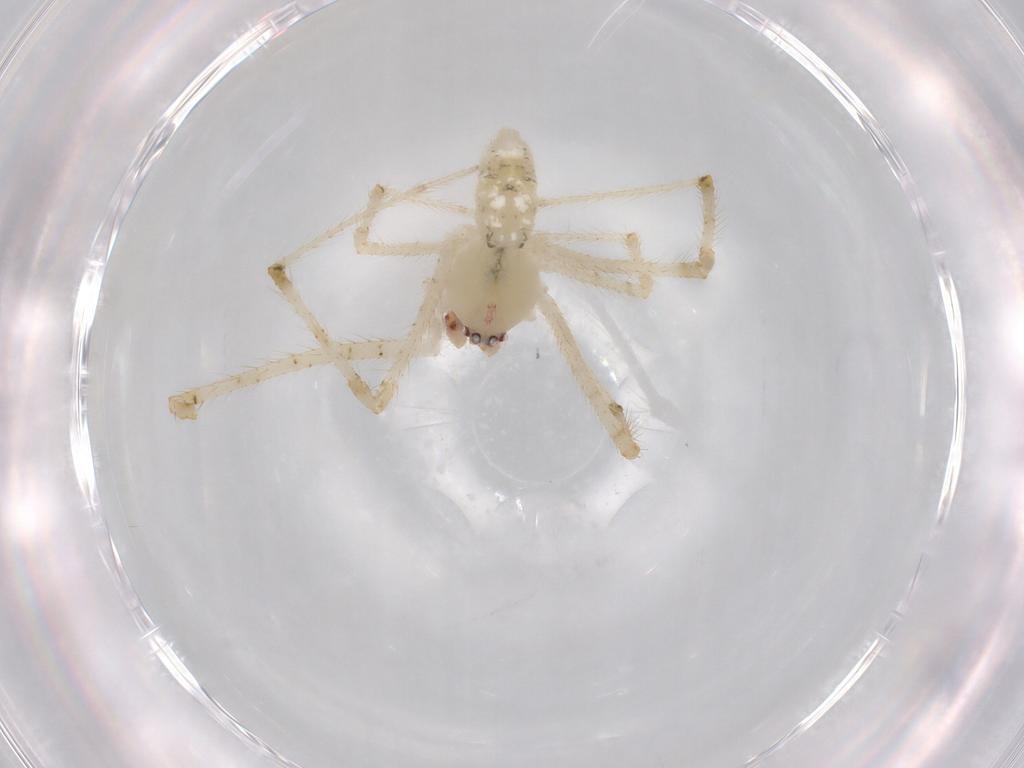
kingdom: Animalia
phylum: Arthropoda
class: Arachnida
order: Araneae
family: Theridiidae
